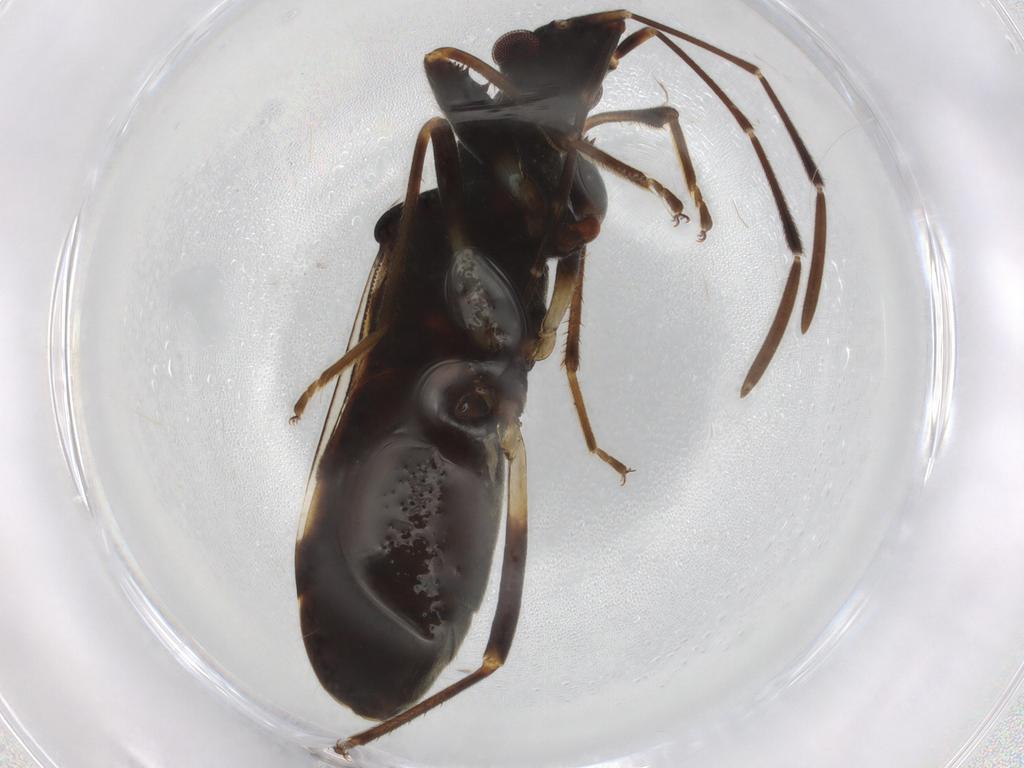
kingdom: Animalia
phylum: Arthropoda
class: Insecta
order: Hemiptera
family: Rhyparochromidae
